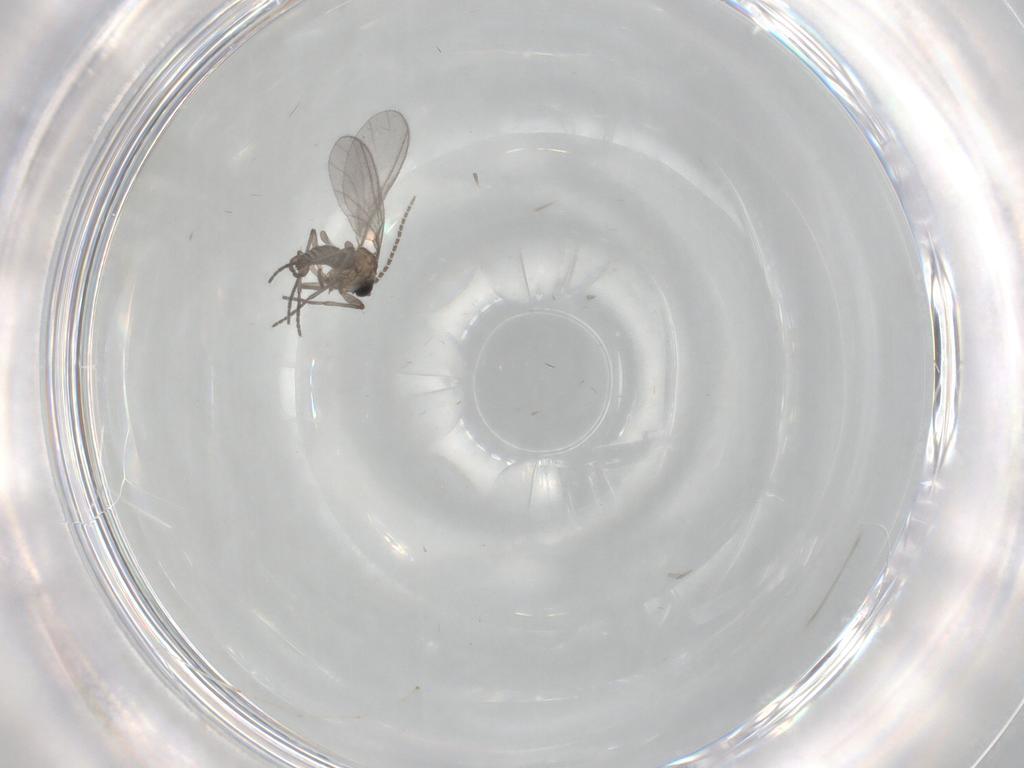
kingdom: Animalia
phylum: Arthropoda
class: Insecta
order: Diptera
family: Sciaridae
